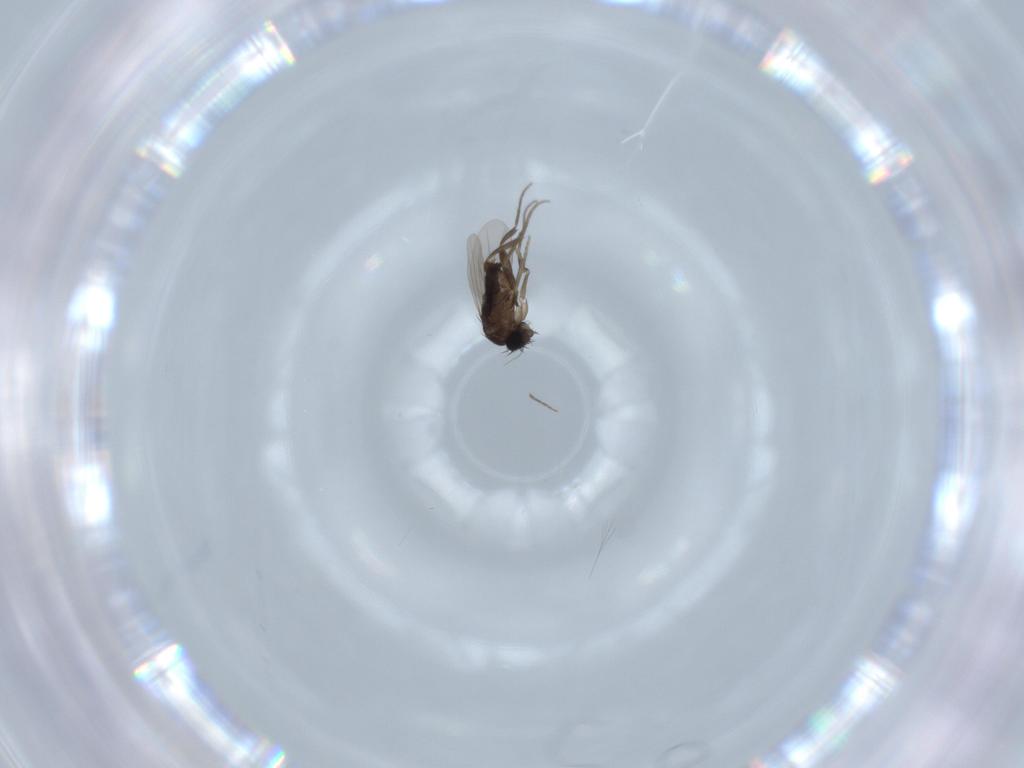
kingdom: Animalia
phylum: Arthropoda
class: Insecta
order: Diptera
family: Phoridae
